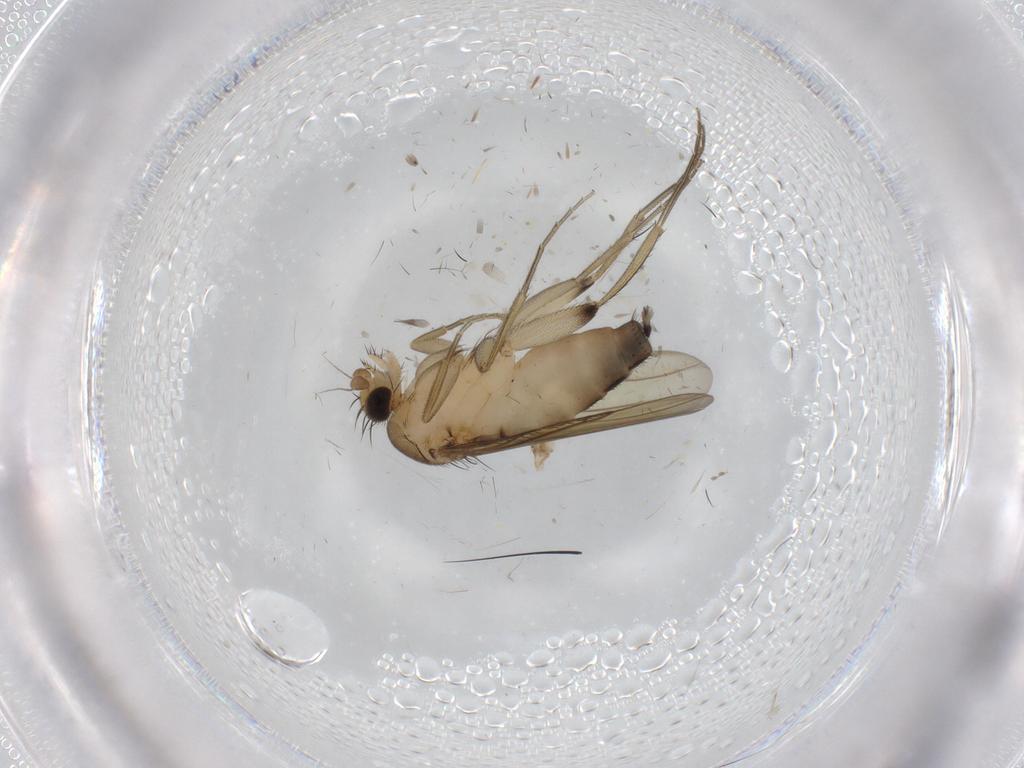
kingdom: Animalia
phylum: Arthropoda
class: Insecta
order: Diptera
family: Phoridae
